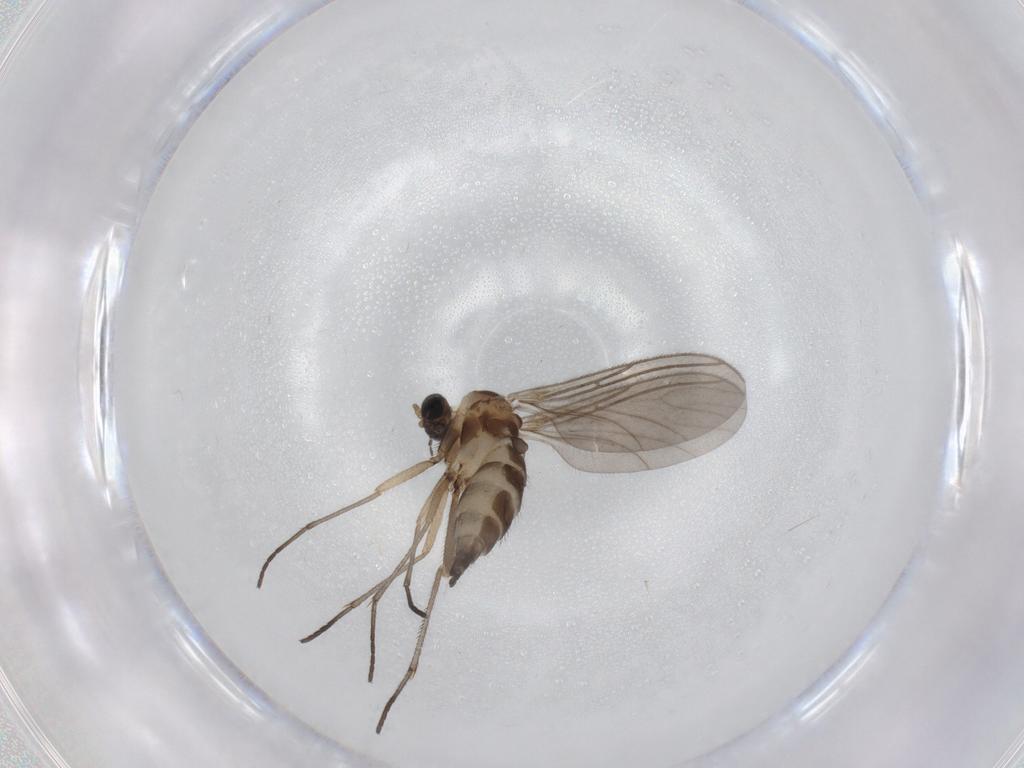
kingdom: Animalia
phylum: Arthropoda
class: Insecta
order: Diptera
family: Sciaridae
